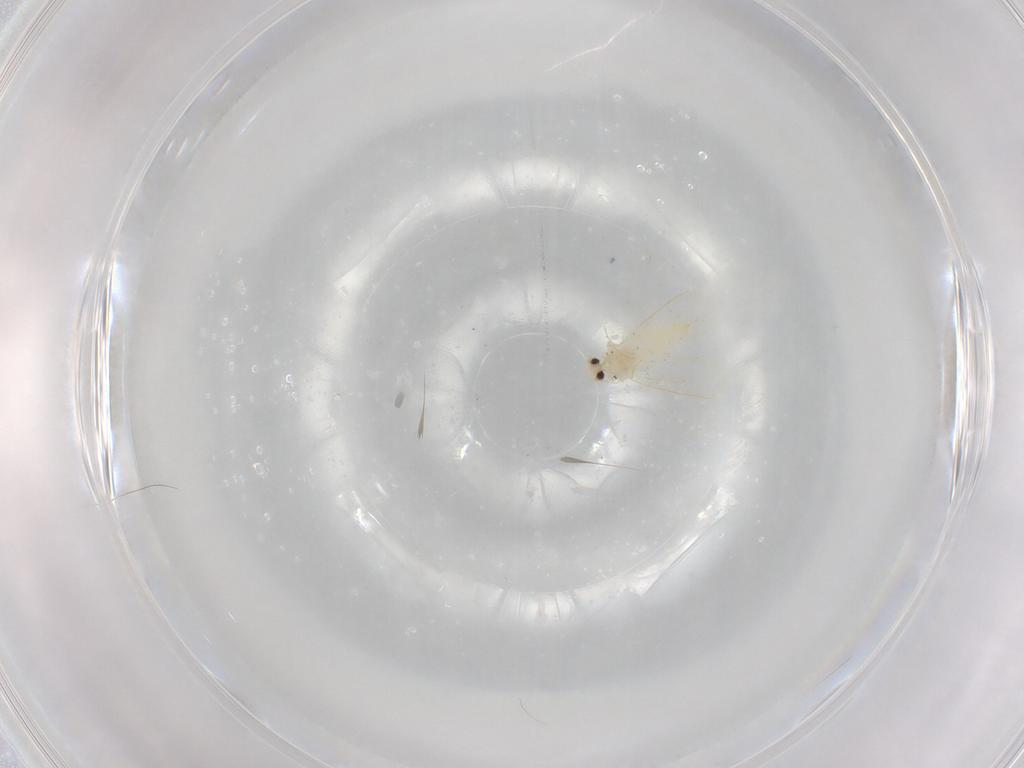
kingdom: Animalia
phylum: Arthropoda
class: Insecta
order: Hemiptera
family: Aleyrodidae
